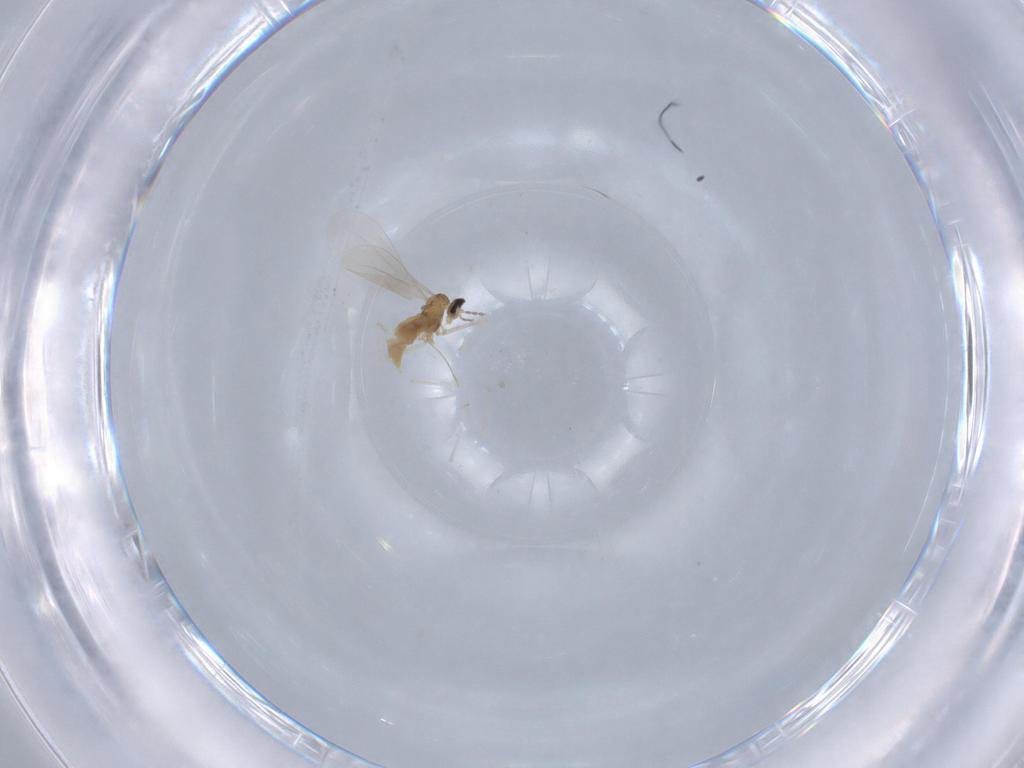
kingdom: Animalia
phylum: Arthropoda
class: Insecta
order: Diptera
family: Cecidomyiidae
